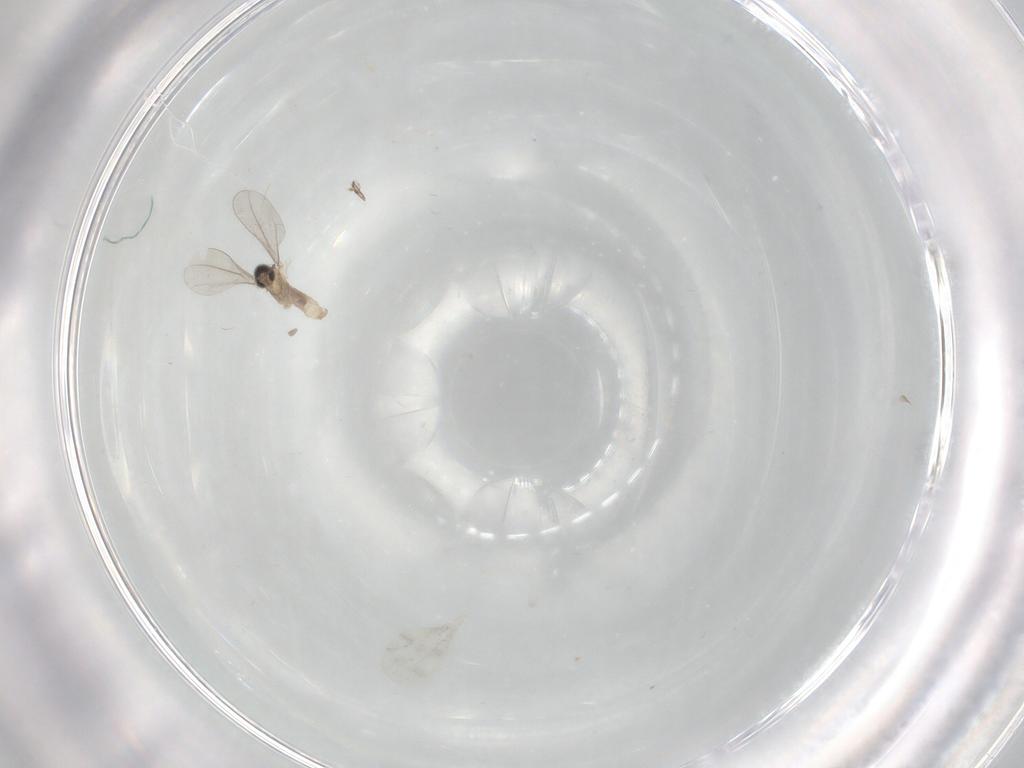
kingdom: Animalia
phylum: Arthropoda
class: Insecta
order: Diptera
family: Cecidomyiidae
